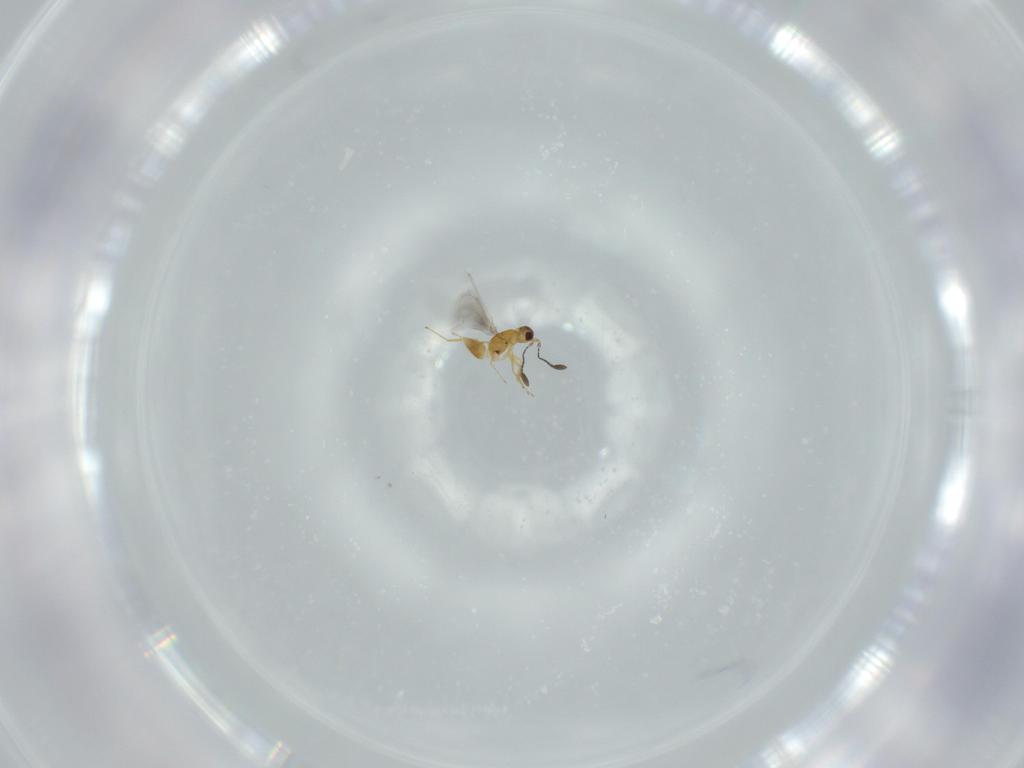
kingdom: Animalia
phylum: Arthropoda
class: Insecta
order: Hymenoptera
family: Mymaridae
